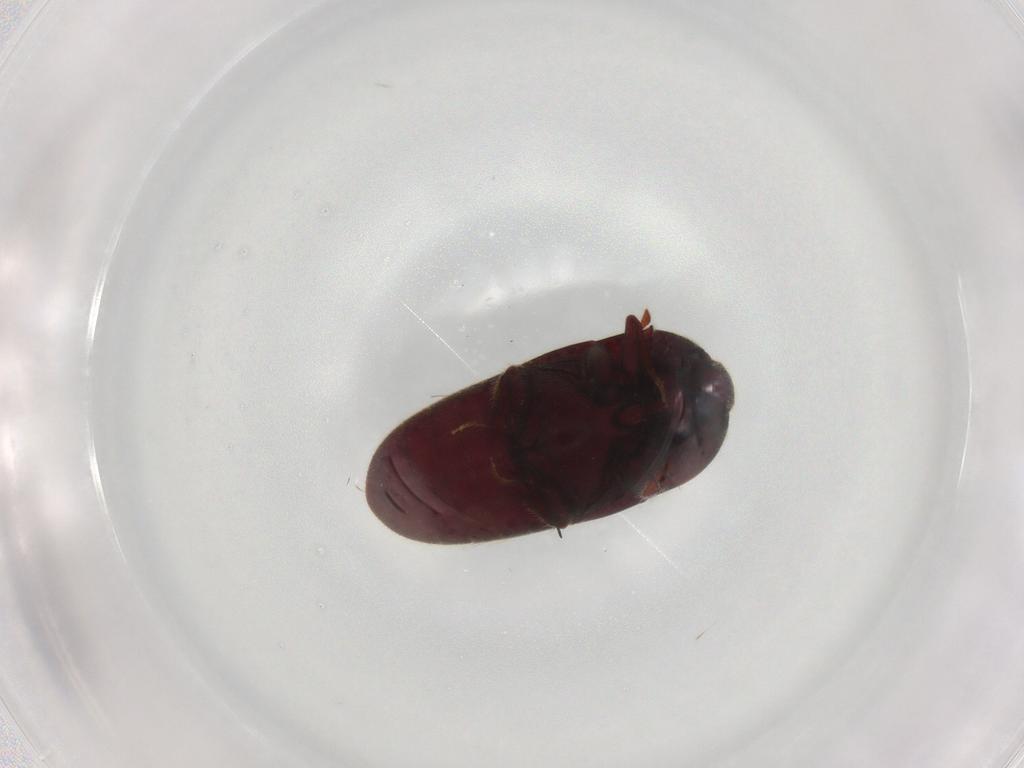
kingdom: Animalia
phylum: Arthropoda
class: Insecta
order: Coleoptera
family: Throscidae
